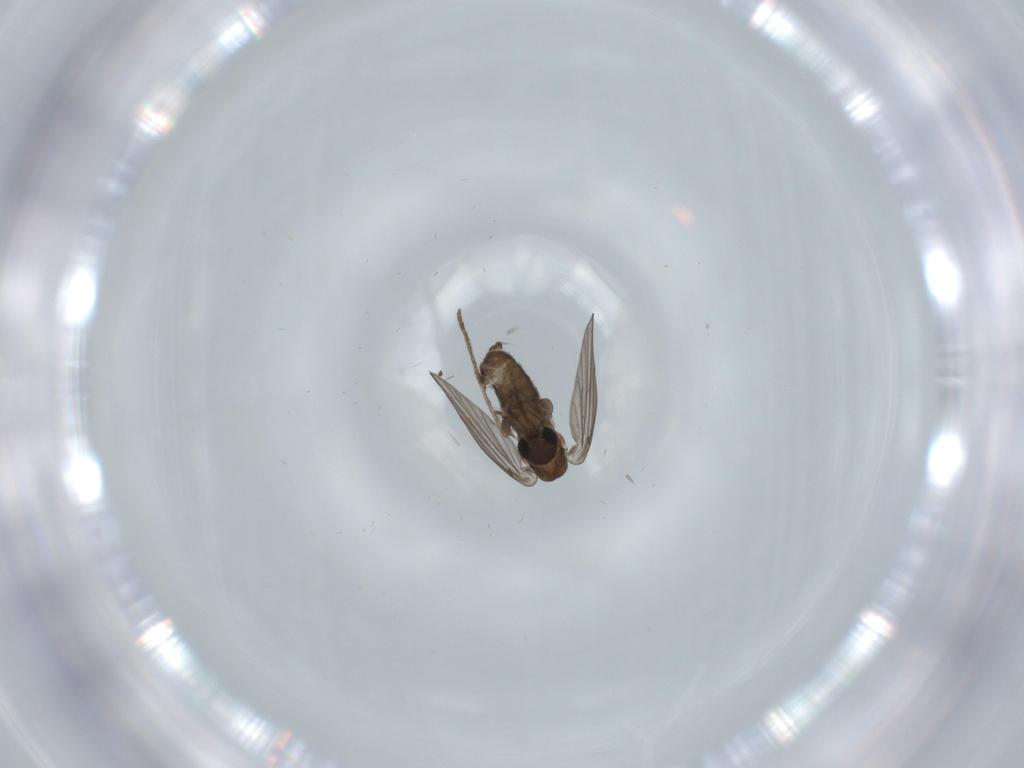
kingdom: Animalia
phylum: Arthropoda
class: Insecta
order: Diptera
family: Psychodidae
